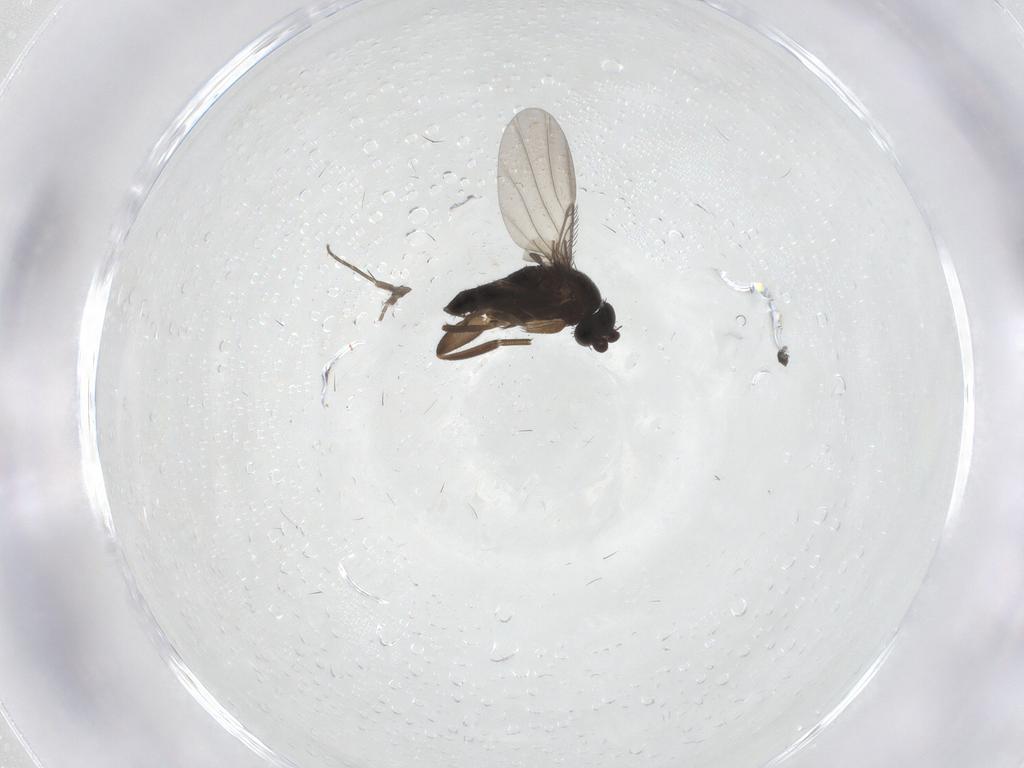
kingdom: Animalia
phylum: Arthropoda
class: Insecta
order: Diptera
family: Phoridae
